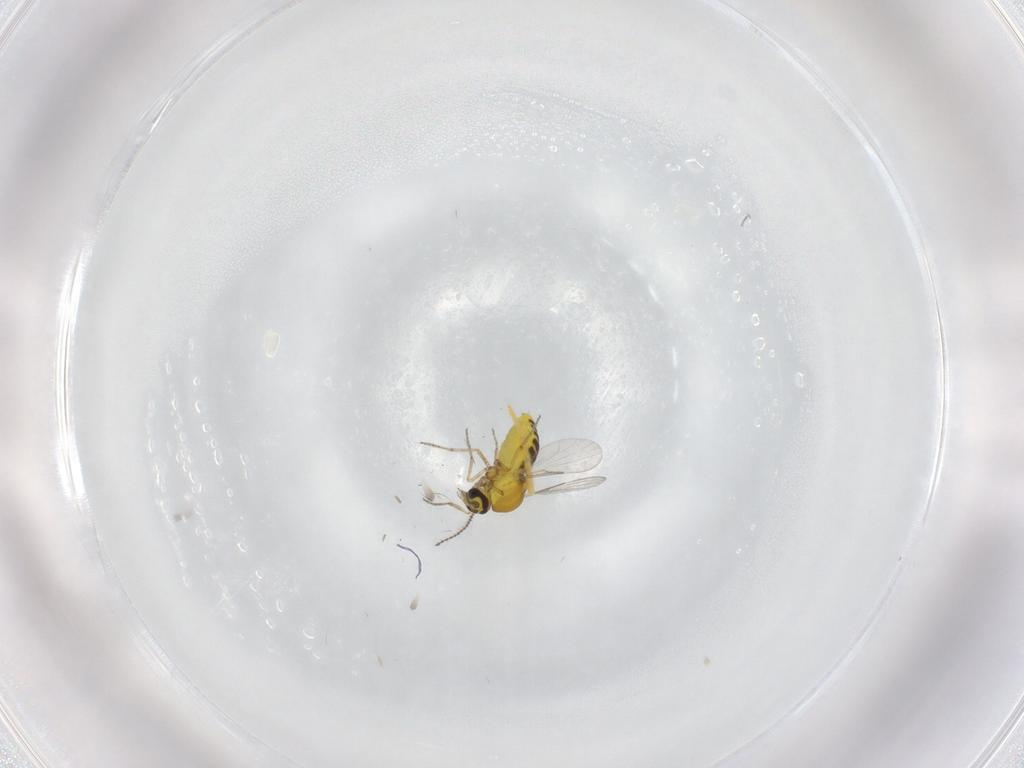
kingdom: Animalia
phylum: Arthropoda
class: Insecta
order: Diptera
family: Ceratopogonidae
